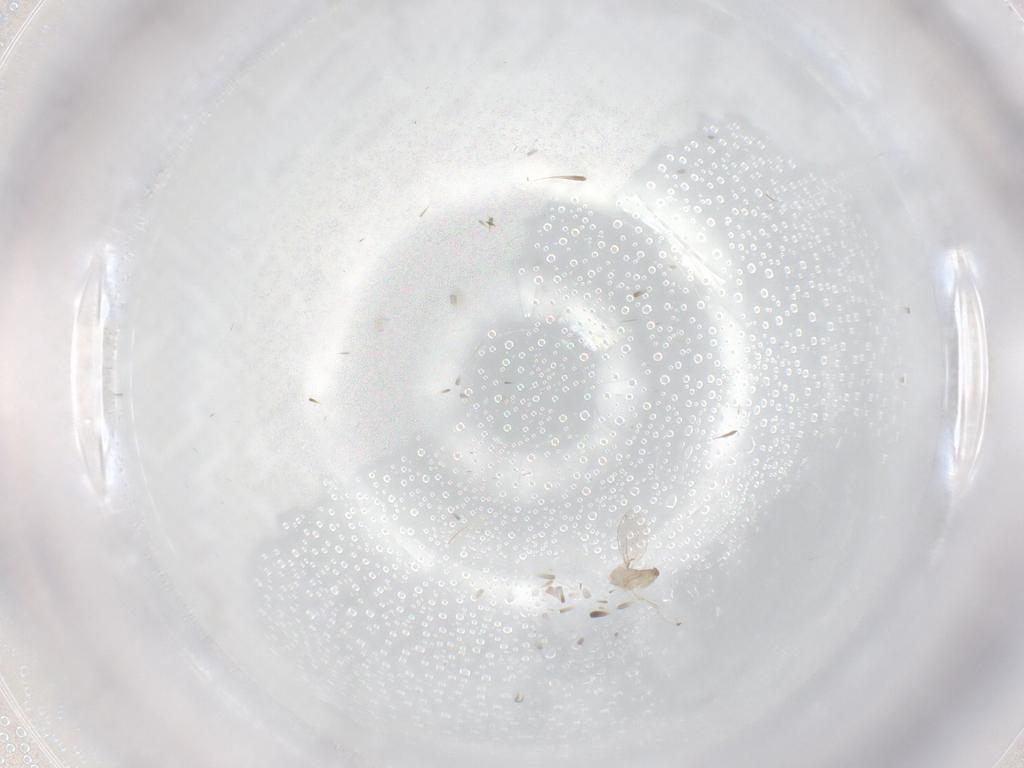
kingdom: Animalia
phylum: Arthropoda
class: Insecta
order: Diptera
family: Cecidomyiidae
